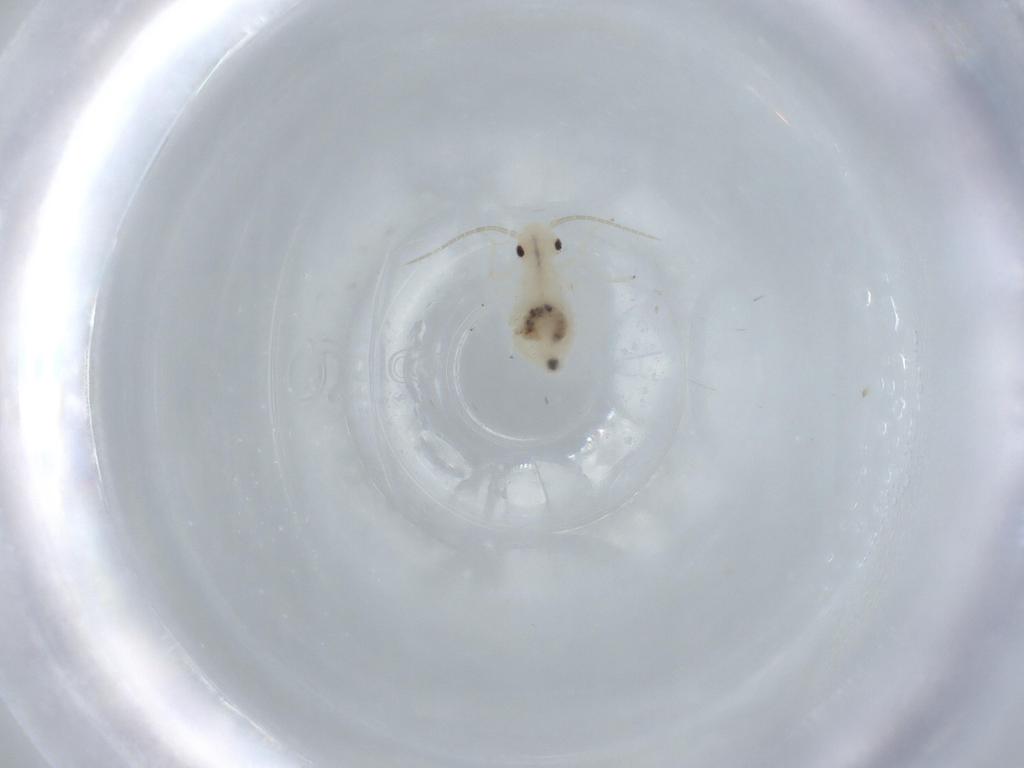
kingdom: Animalia
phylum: Arthropoda
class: Insecta
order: Psocodea
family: Caeciliusidae
